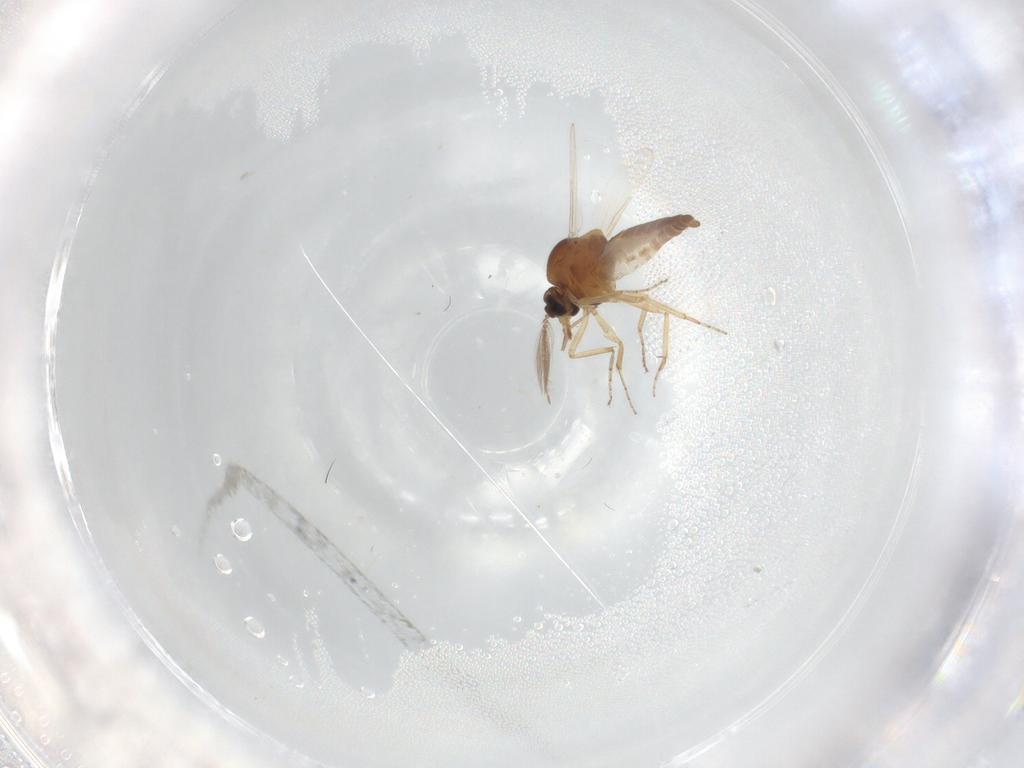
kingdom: Animalia
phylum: Arthropoda
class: Insecta
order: Diptera
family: Ceratopogonidae
